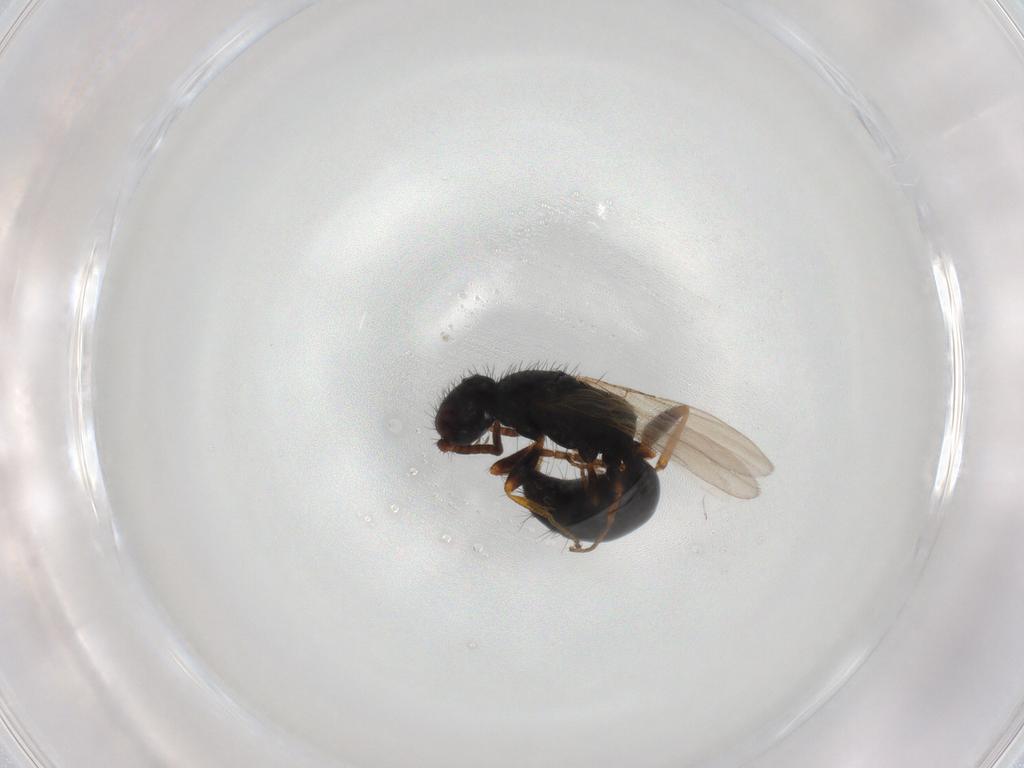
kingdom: Animalia
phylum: Arthropoda
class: Insecta
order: Hymenoptera
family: Bethylidae
